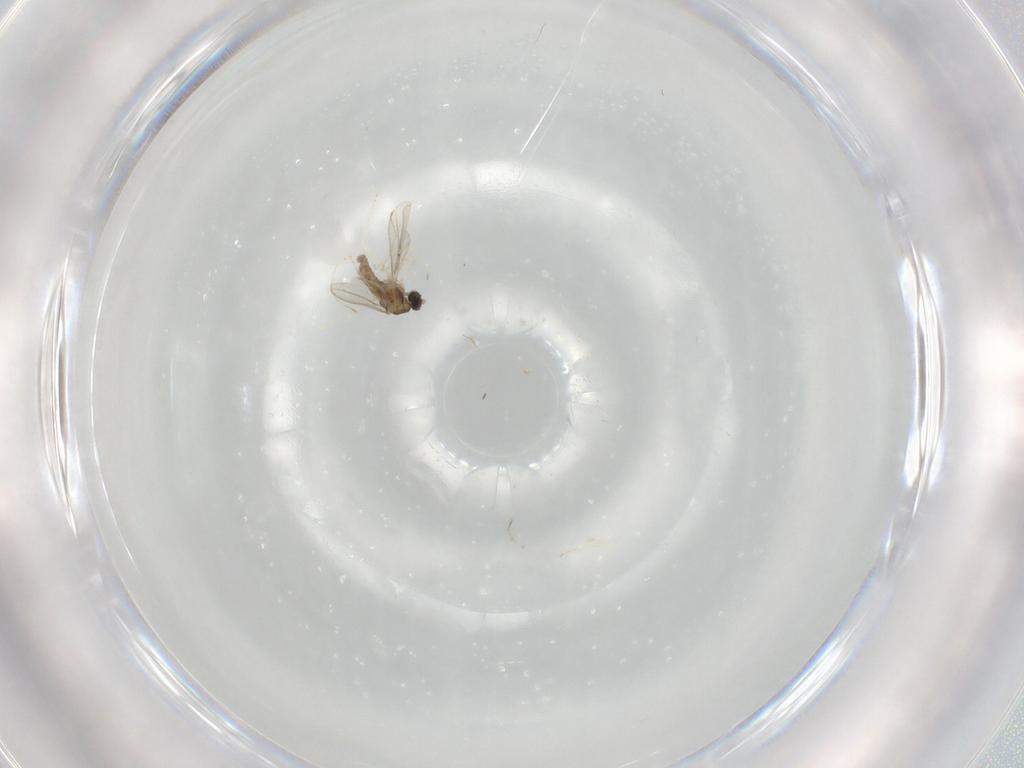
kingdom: Animalia
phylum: Arthropoda
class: Insecta
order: Diptera
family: Cecidomyiidae
